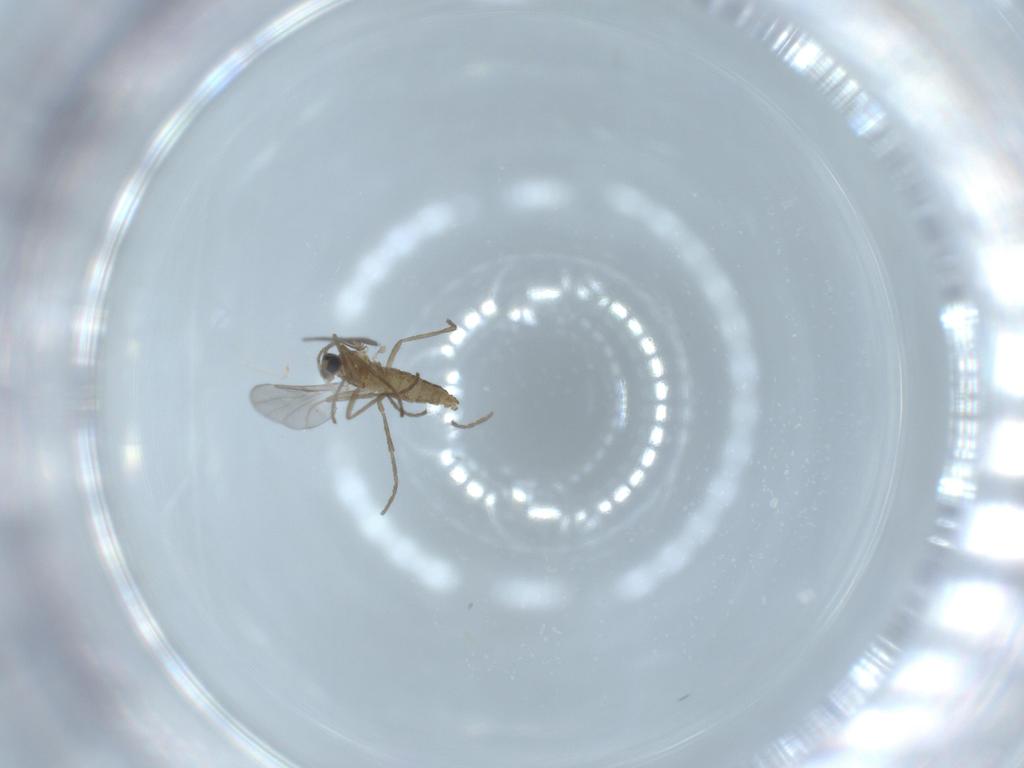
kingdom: Animalia
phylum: Arthropoda
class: Insecta
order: Diptera
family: Cecidomyiidae
